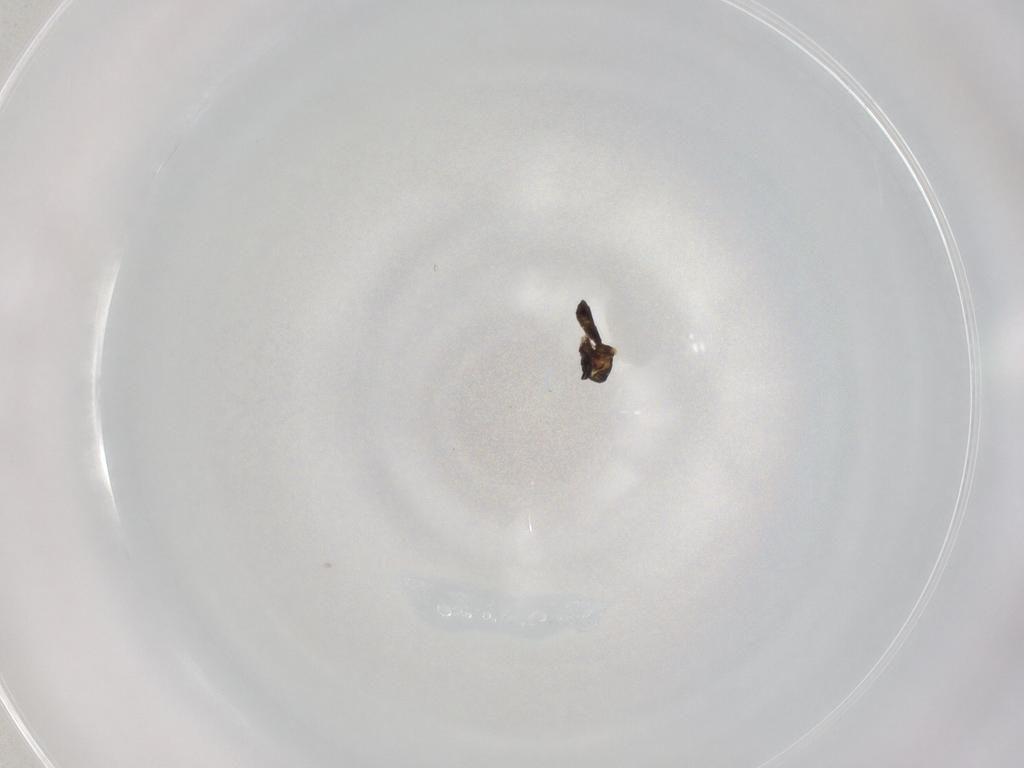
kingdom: Animalia
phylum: Arthropoda
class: Insecta
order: Diptera
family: Ceratopogonidae
